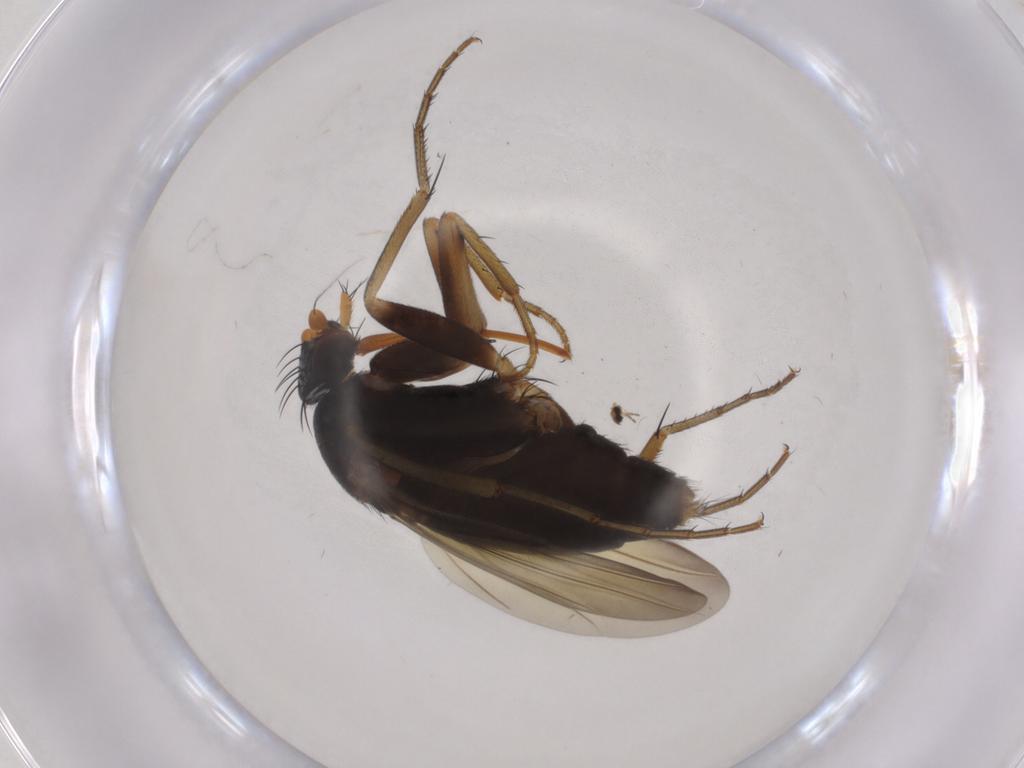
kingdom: Animalia
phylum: Arthropoda
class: Insecta
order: Diptera
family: Phoridae
